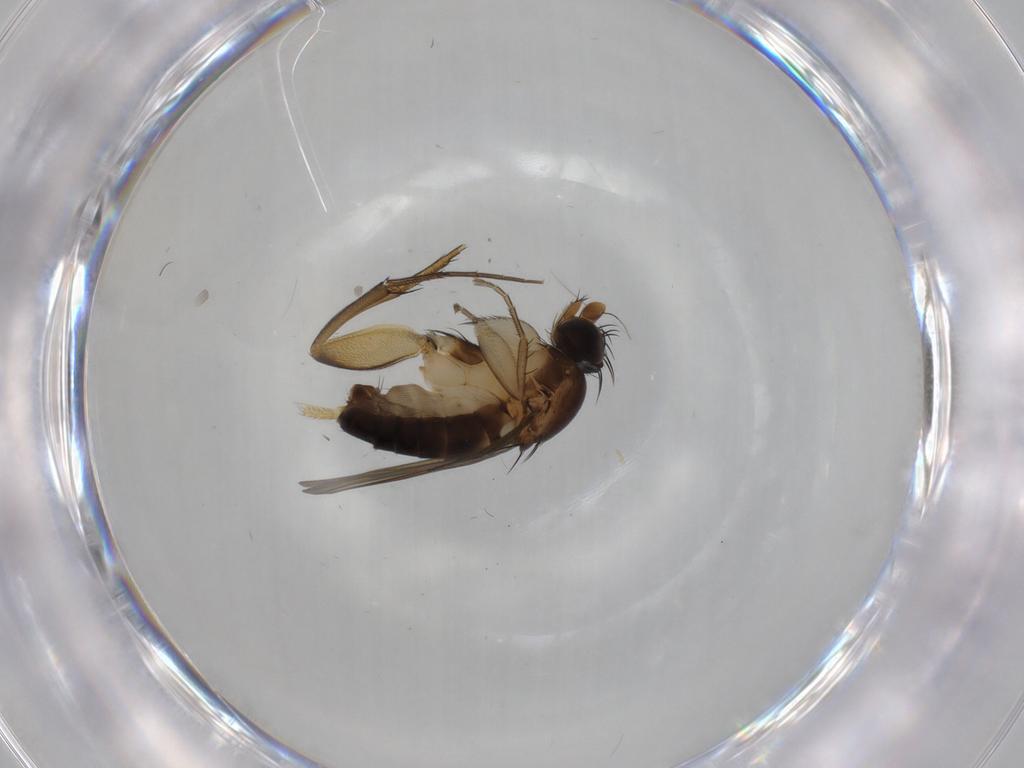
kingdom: Animalia
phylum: Arthropoda
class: Insecta
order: Diptera
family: Phoridae
